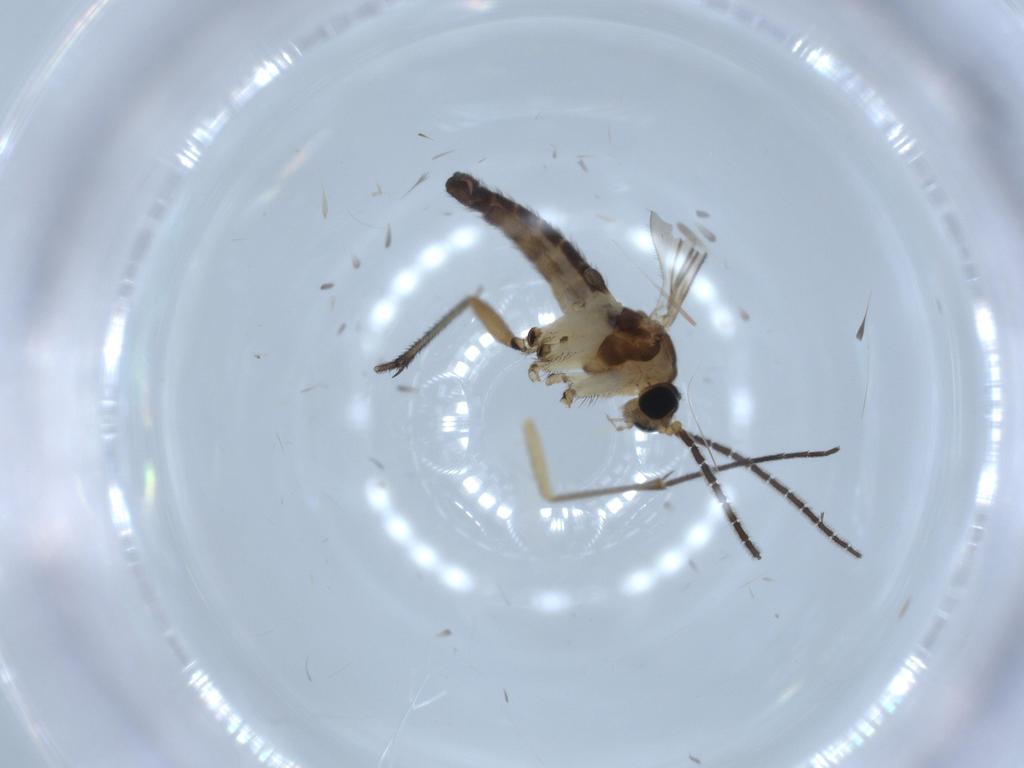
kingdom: Animalia
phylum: Arthropoda
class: Insecta
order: Diptera
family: Sciaridae
